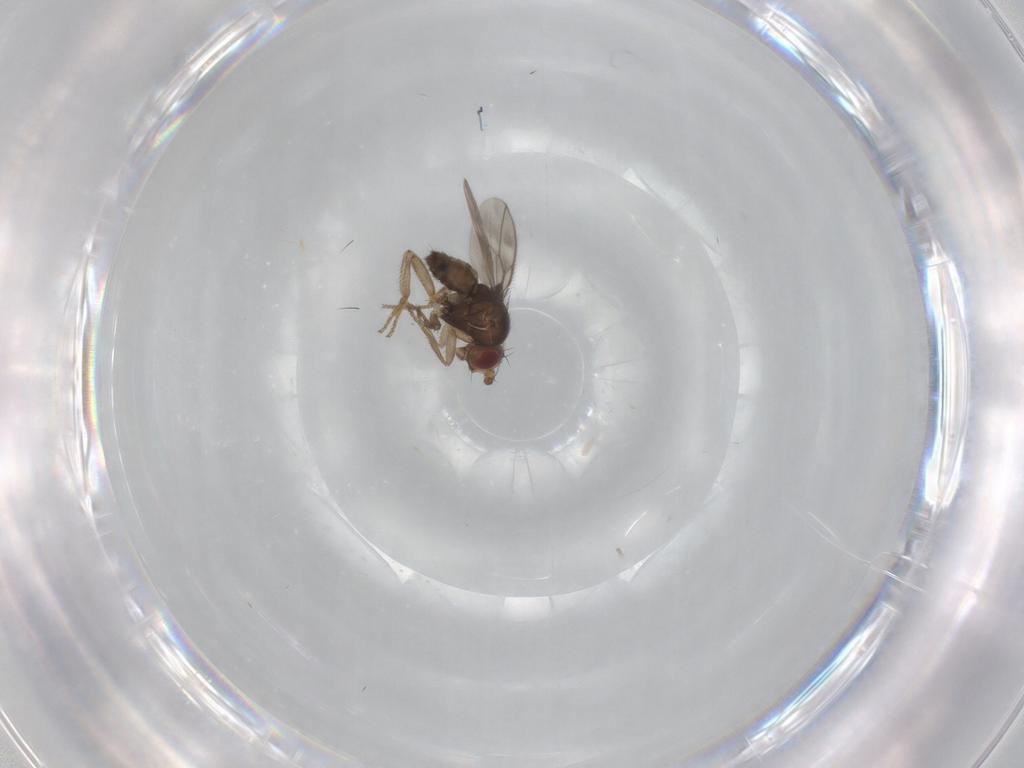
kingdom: Animalia
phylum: Arthropoda
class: Insecta
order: Diptera
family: Sphaeroceridae
